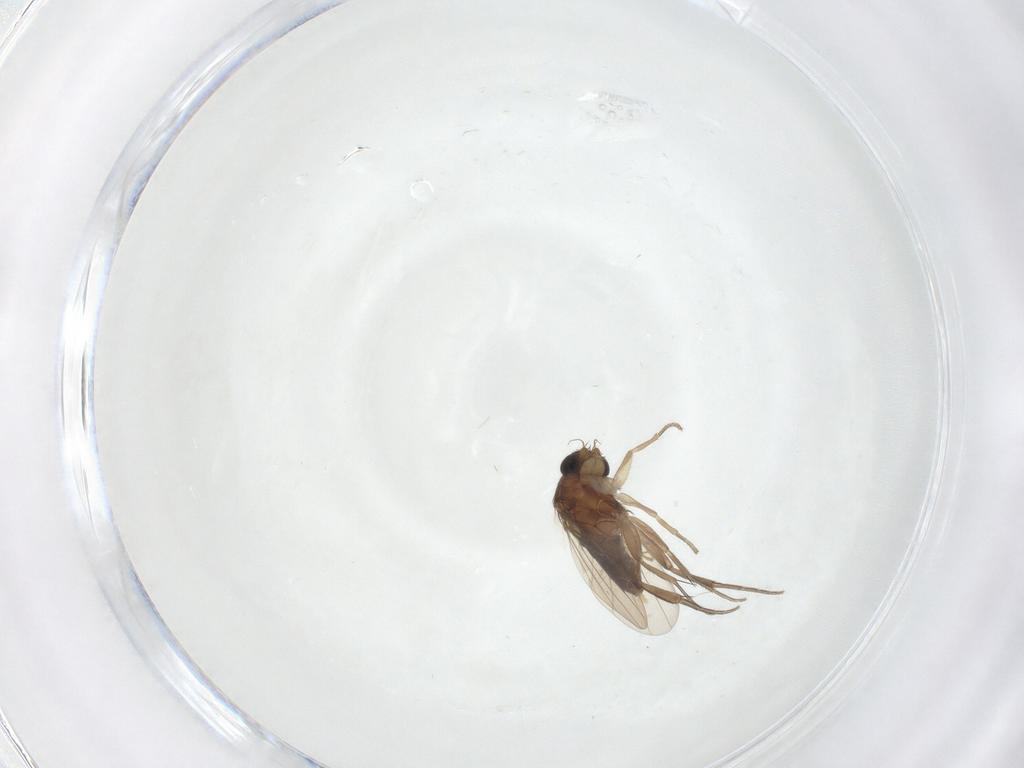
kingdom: Animalia
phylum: Arthropoda
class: Insecta
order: Diptera
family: Phoridae
